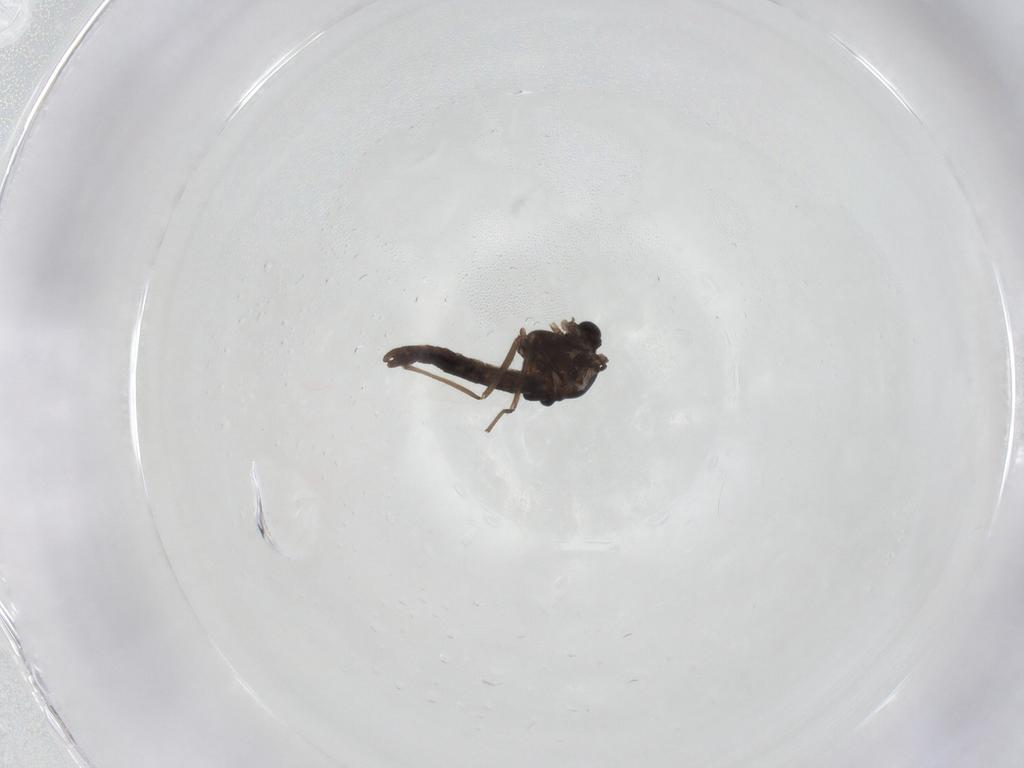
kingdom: Animalia
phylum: Arthropoda
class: Insecta
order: Diptera
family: Chironomidae
